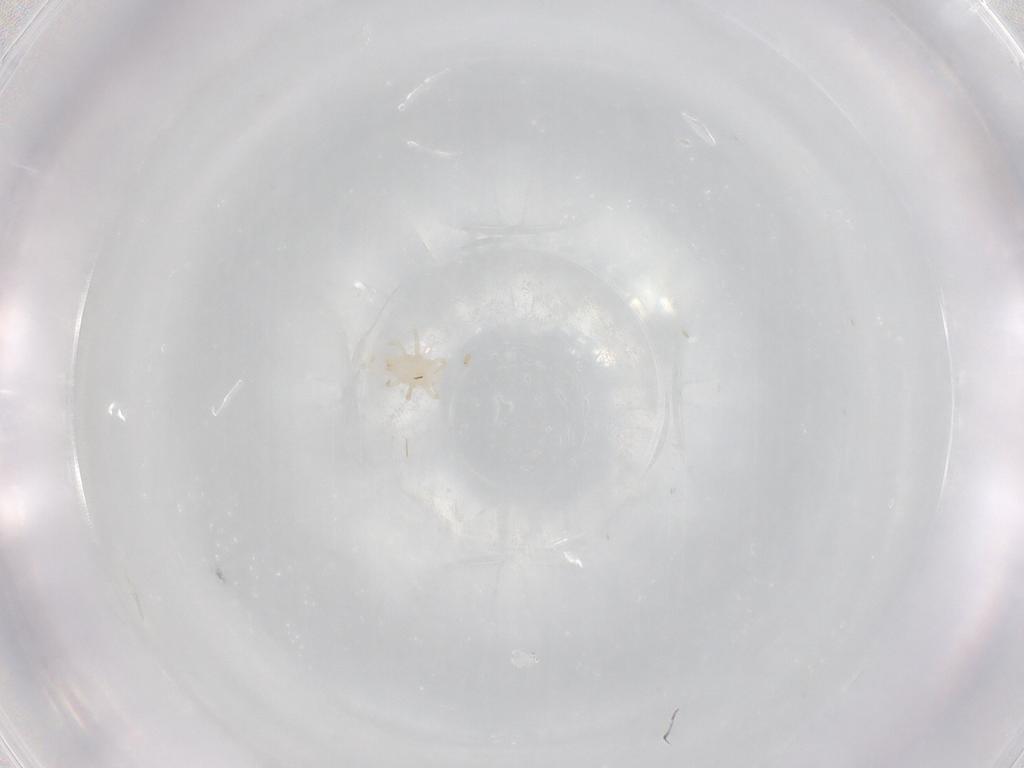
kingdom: Animalia
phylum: Arthropoda
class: Arachnida
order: Mesostigmata
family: Laelapidae
